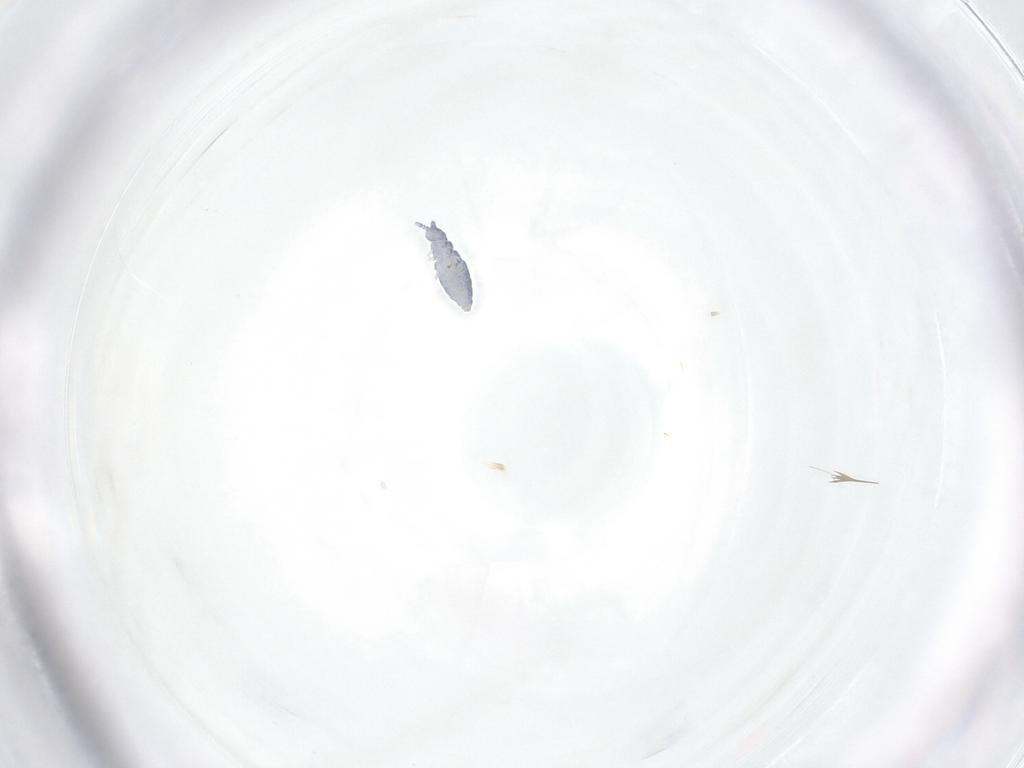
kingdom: Animalia
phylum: Arthropoda
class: Collembola
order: Poduromorpha
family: Hypogastruridae
